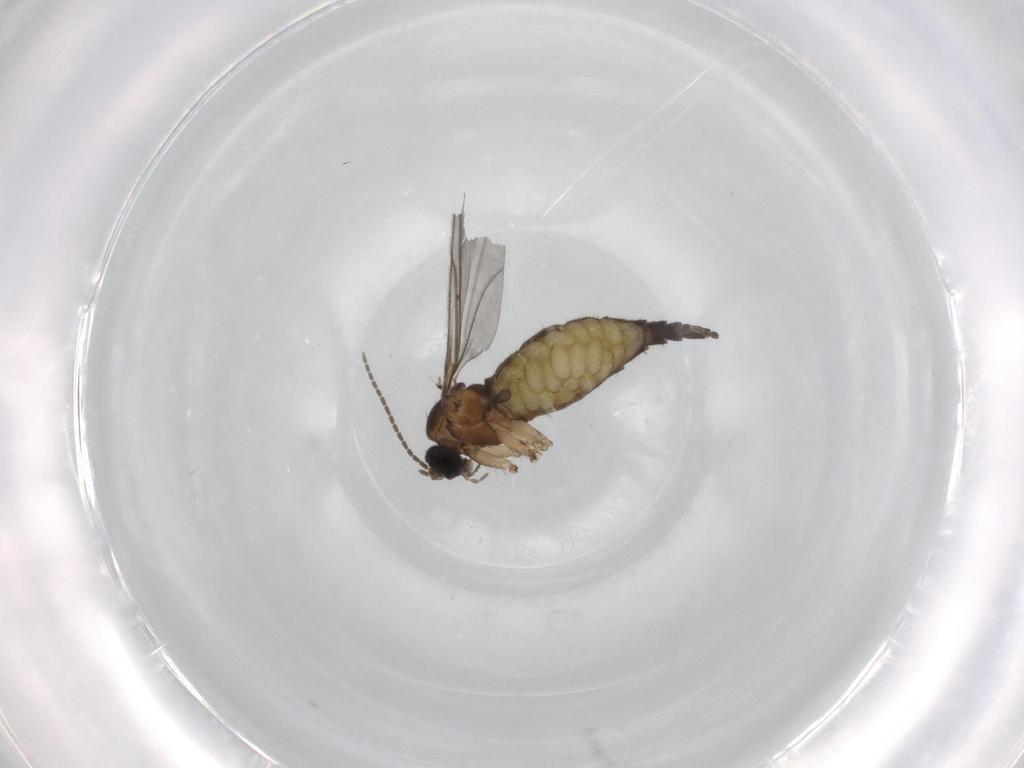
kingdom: Animalia
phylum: Arthropoda
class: Insecta
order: Diptera
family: Sciaridae
